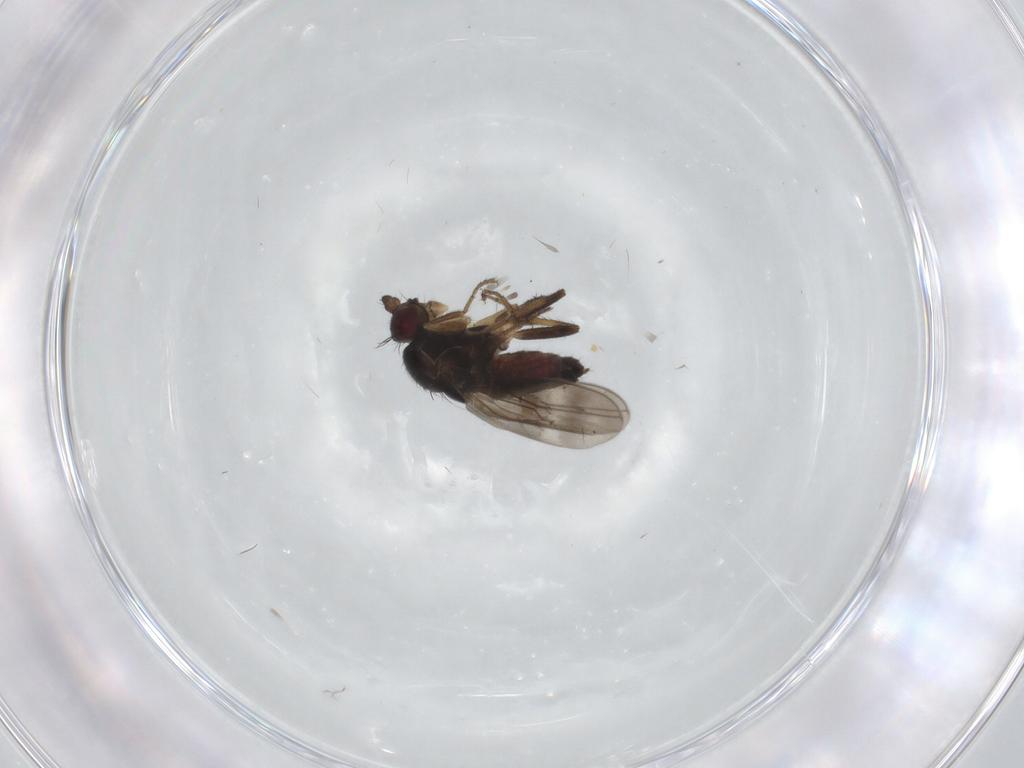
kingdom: Animalia
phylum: Arthropoda
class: Insecta
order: Diptera
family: Sphaeroceridae
